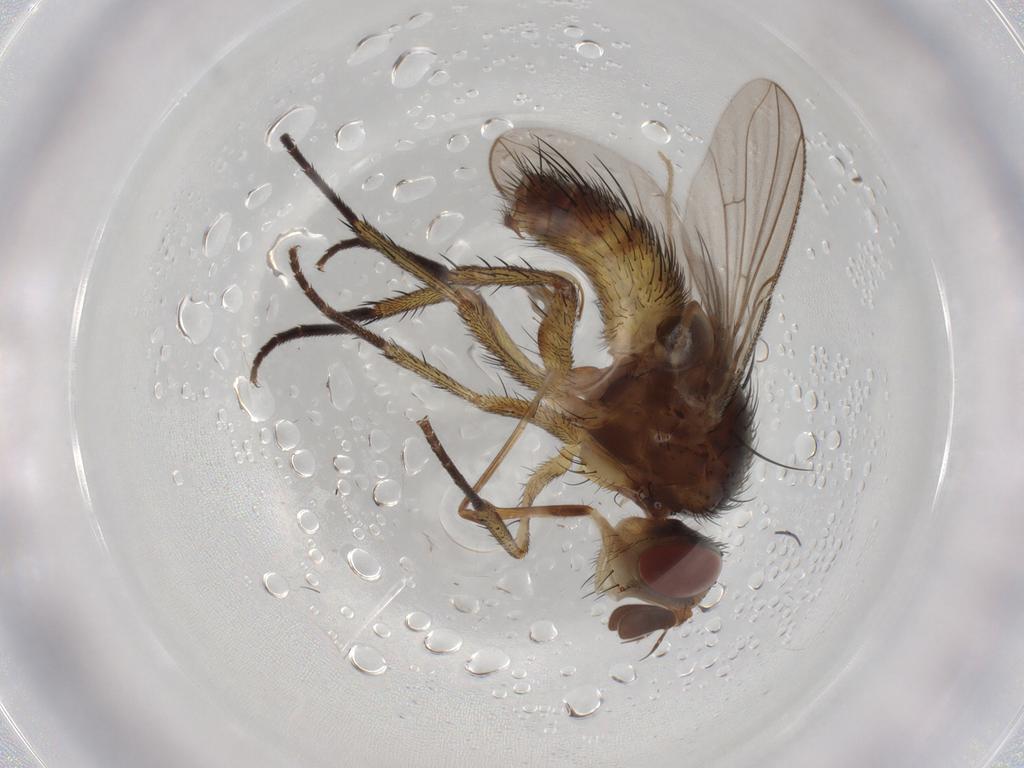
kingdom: Animalia
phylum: Arthropoda
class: Insecta
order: Diptera
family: Tachinidae
